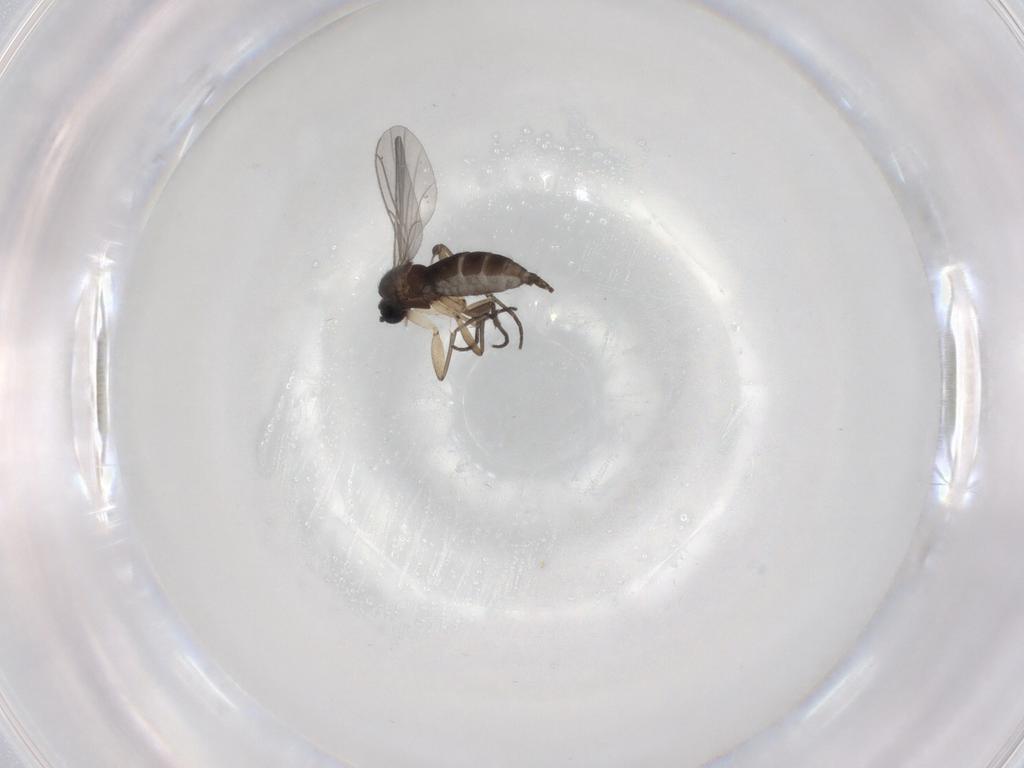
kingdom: Animalia
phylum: Arthropoda
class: Insecta
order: Diptera
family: Sciaridae
